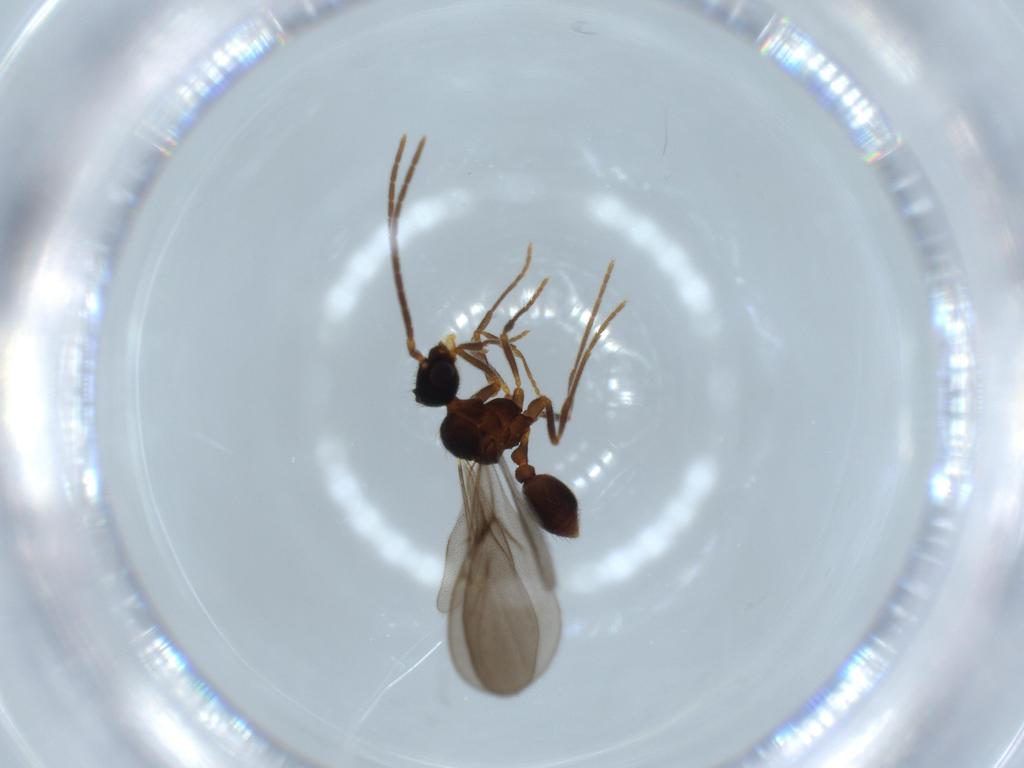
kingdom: Animalia
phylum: Arthropoda
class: Insecta
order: Hymenoptera
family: Formicidae
